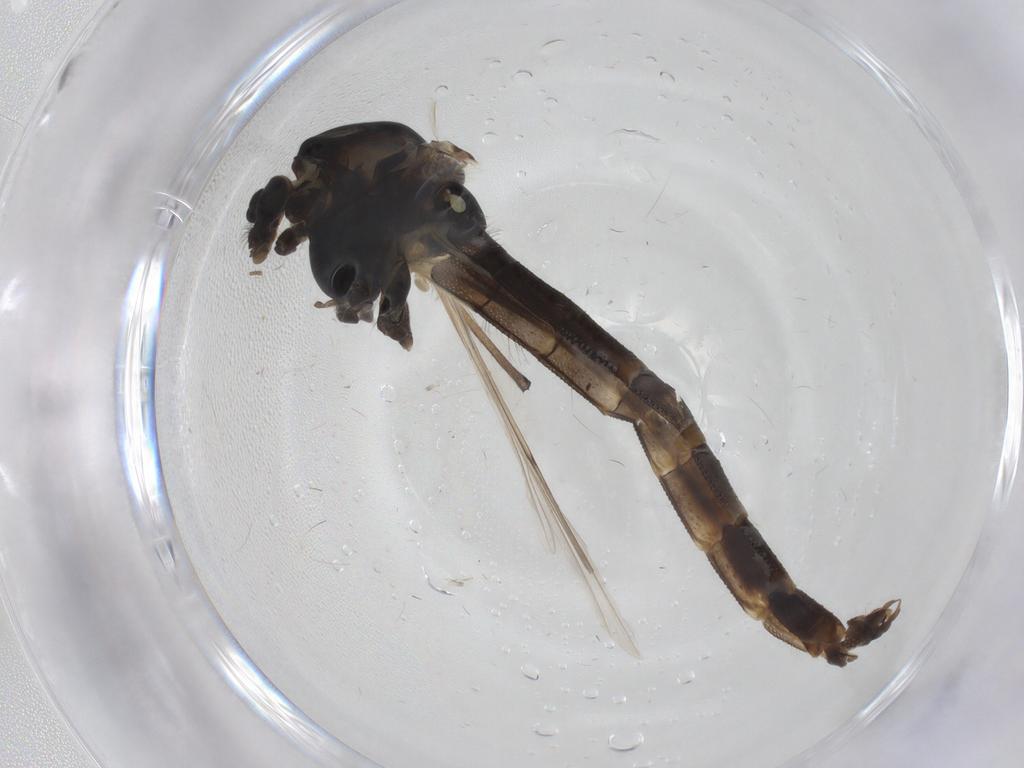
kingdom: Animalia
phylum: Arthropoda
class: Insecta
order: Diptera
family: Chironomidae
